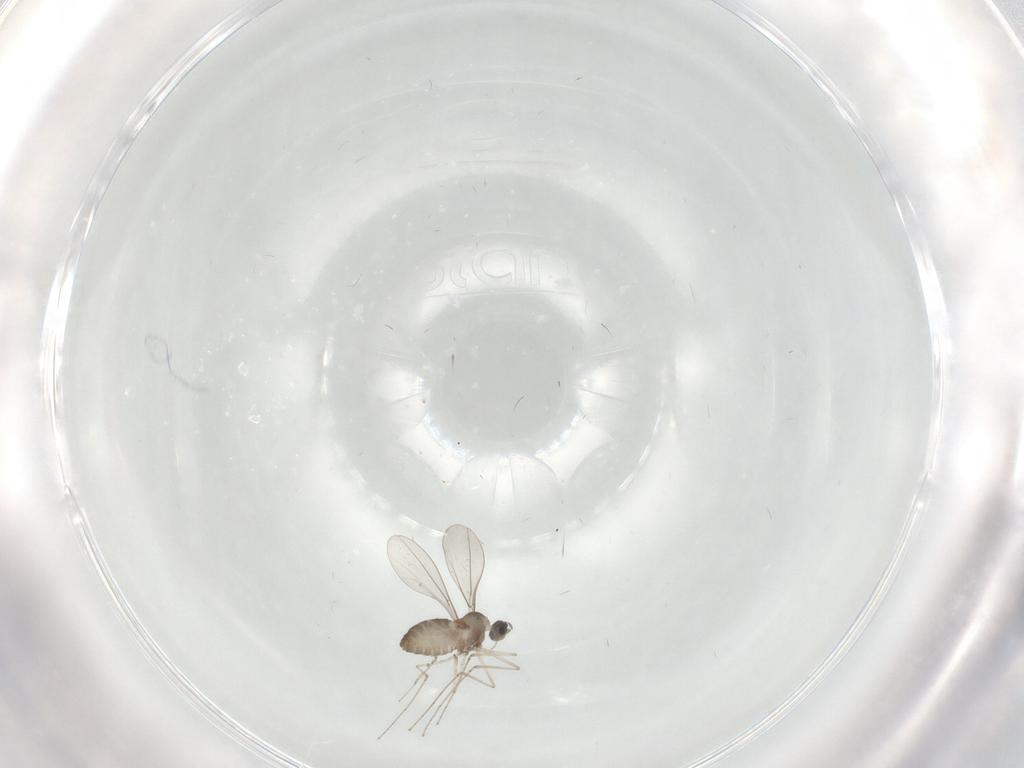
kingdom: Animalia
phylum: Arthropoda
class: Insecta
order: Diptera
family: Cecidomyiidae
